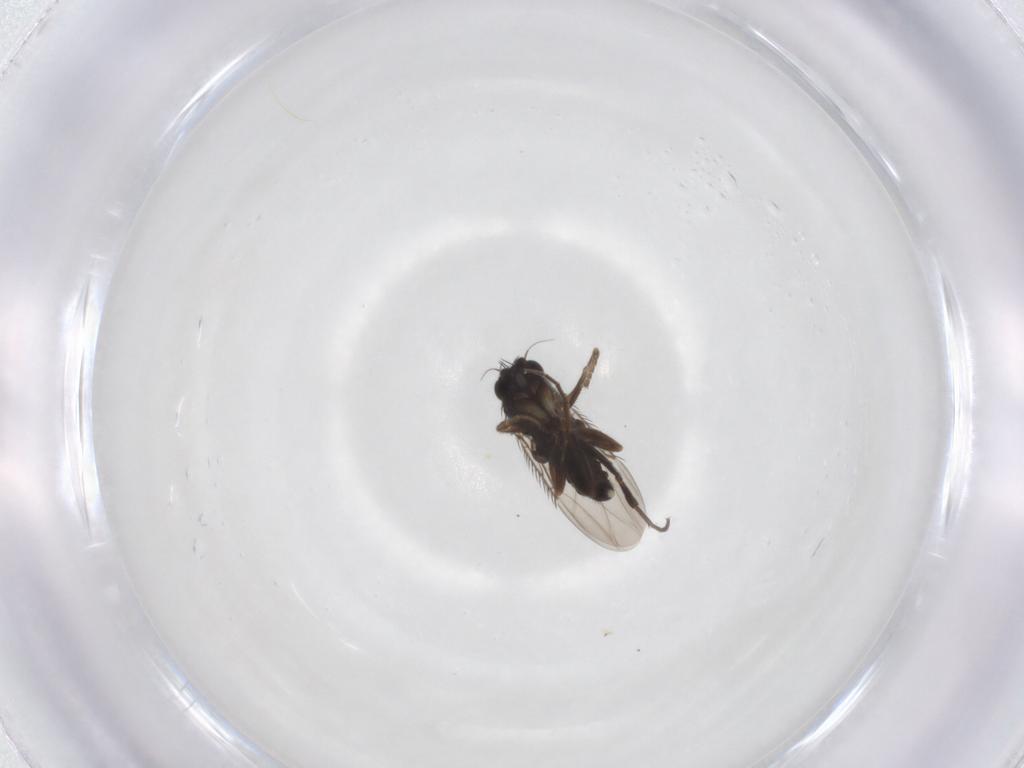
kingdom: Animalia
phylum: Arthropoda
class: Insecta
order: Diptera
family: Phoridae
